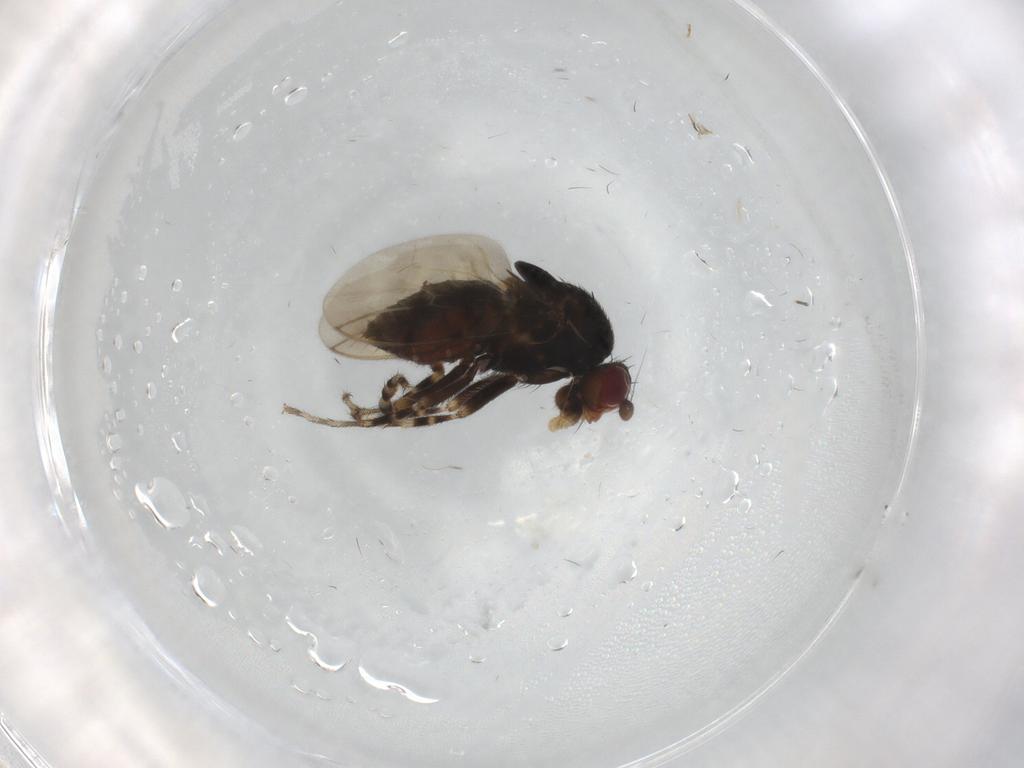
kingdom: Animalia
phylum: Arthropoda
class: Insecta
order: Diptera
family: Sphaeroceridae
